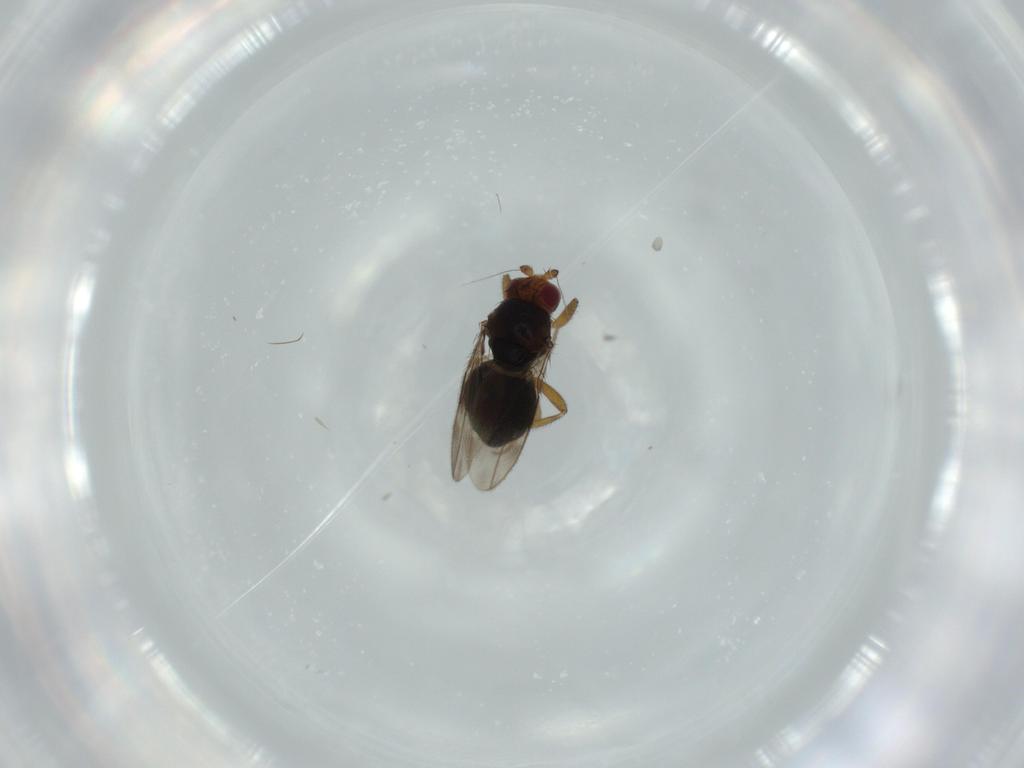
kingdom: Animalia
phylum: Arthropoda
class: Insecta
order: Diptera
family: Sphaeroceridae
